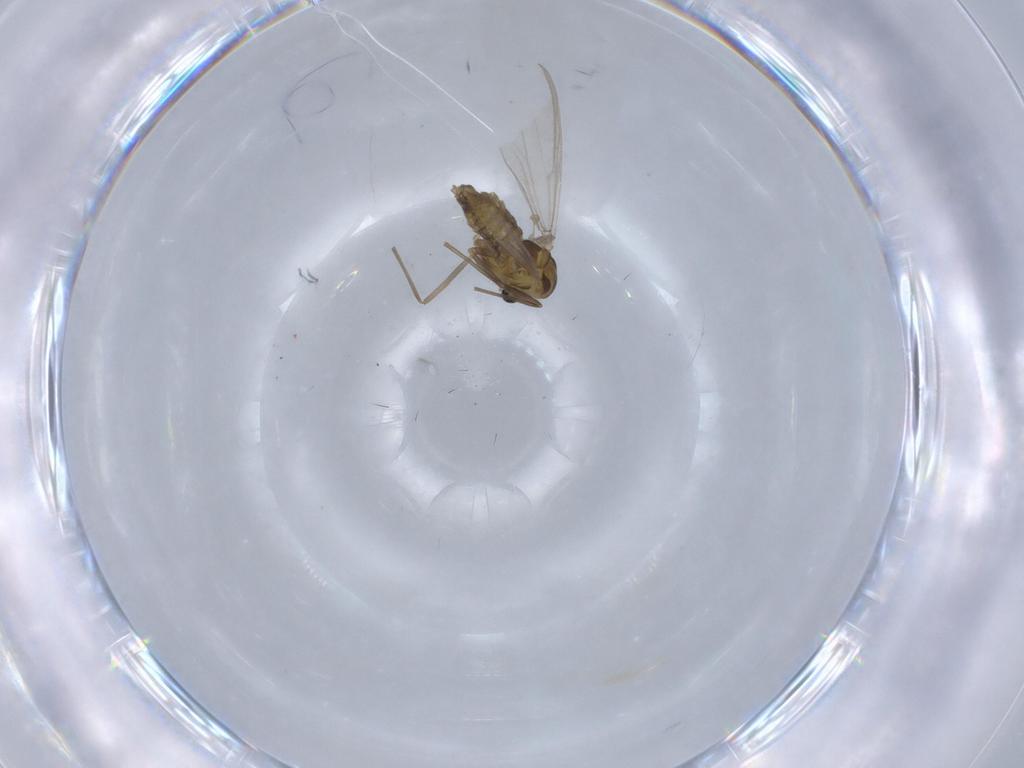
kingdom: Animalia
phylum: Arthropoda
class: Insecta
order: Diptera
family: Chironomidae
